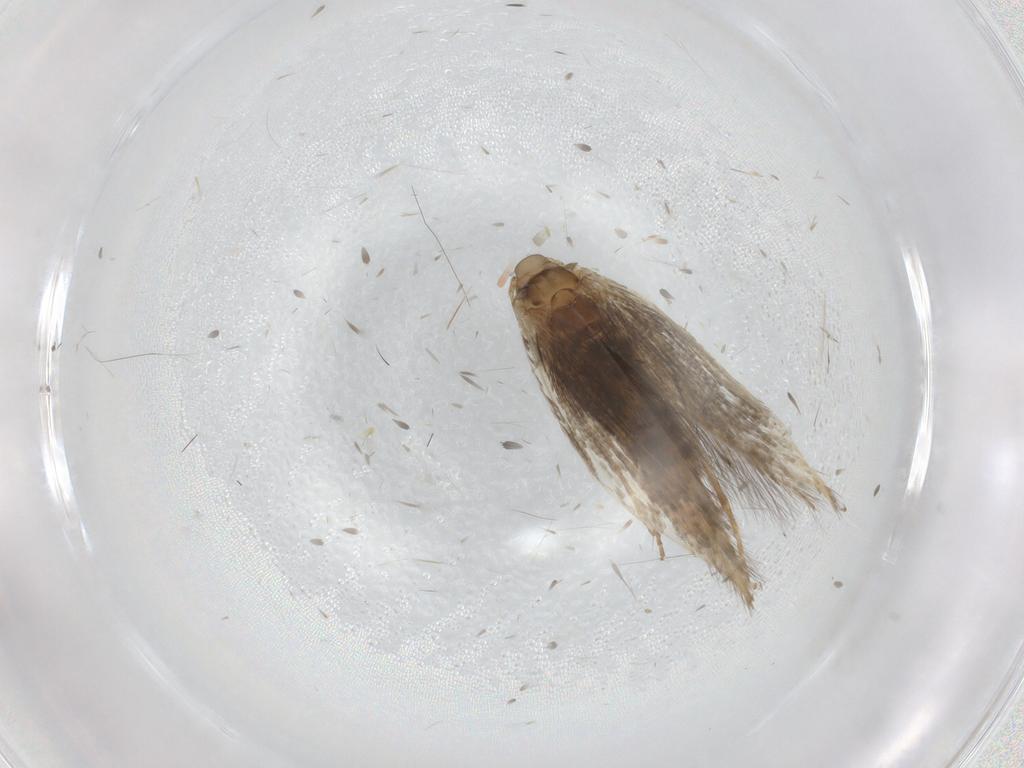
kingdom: Animalia
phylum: Arthropoda
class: Insecta
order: Lepidoptera
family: Tischeriidae
